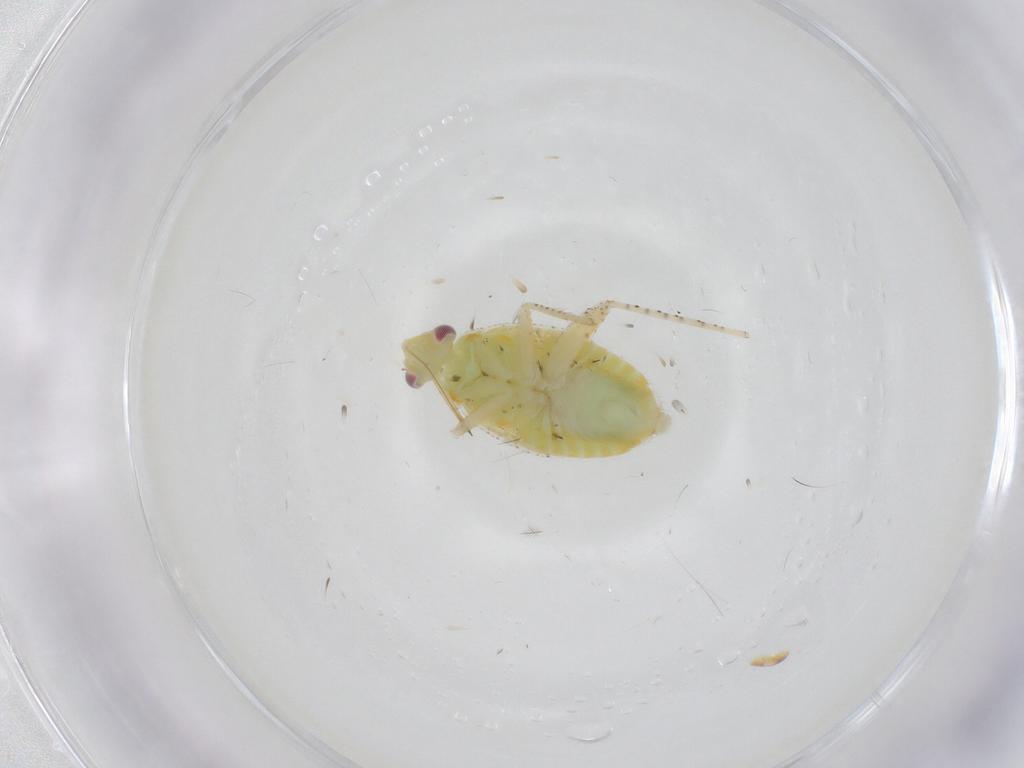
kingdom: Animalia
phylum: Arthropoda
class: Insecta
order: Hemiptera
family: Miridae
